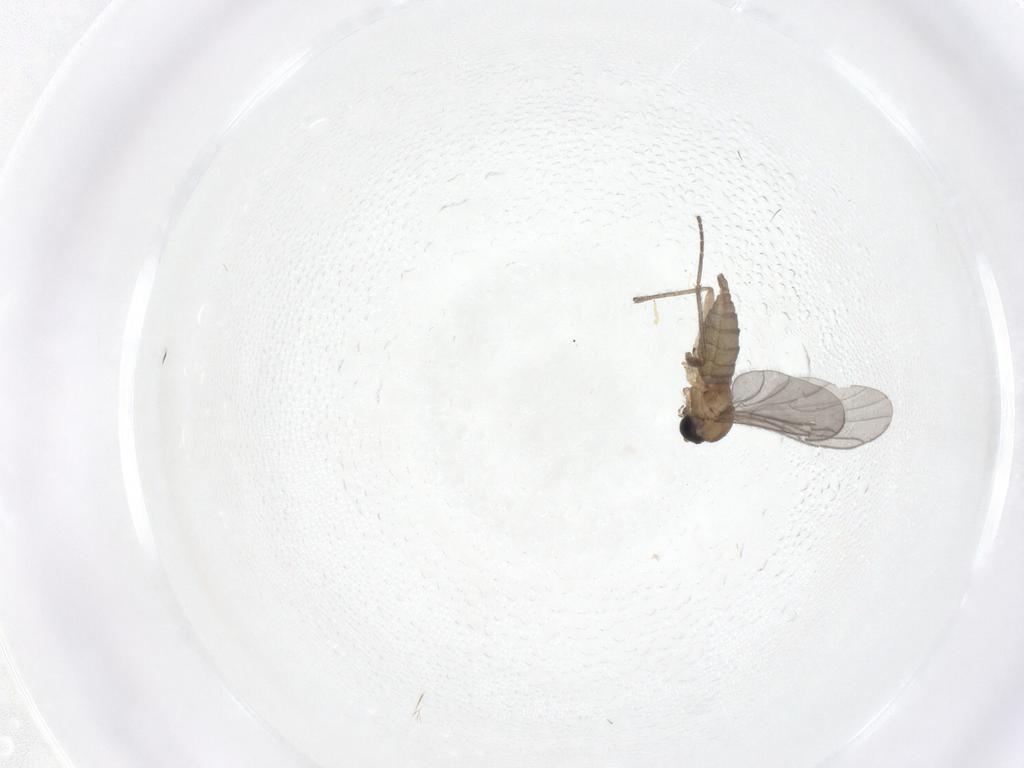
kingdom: Animalia
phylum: Arthropoda
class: Insecta
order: Diptera
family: Sciaridae
